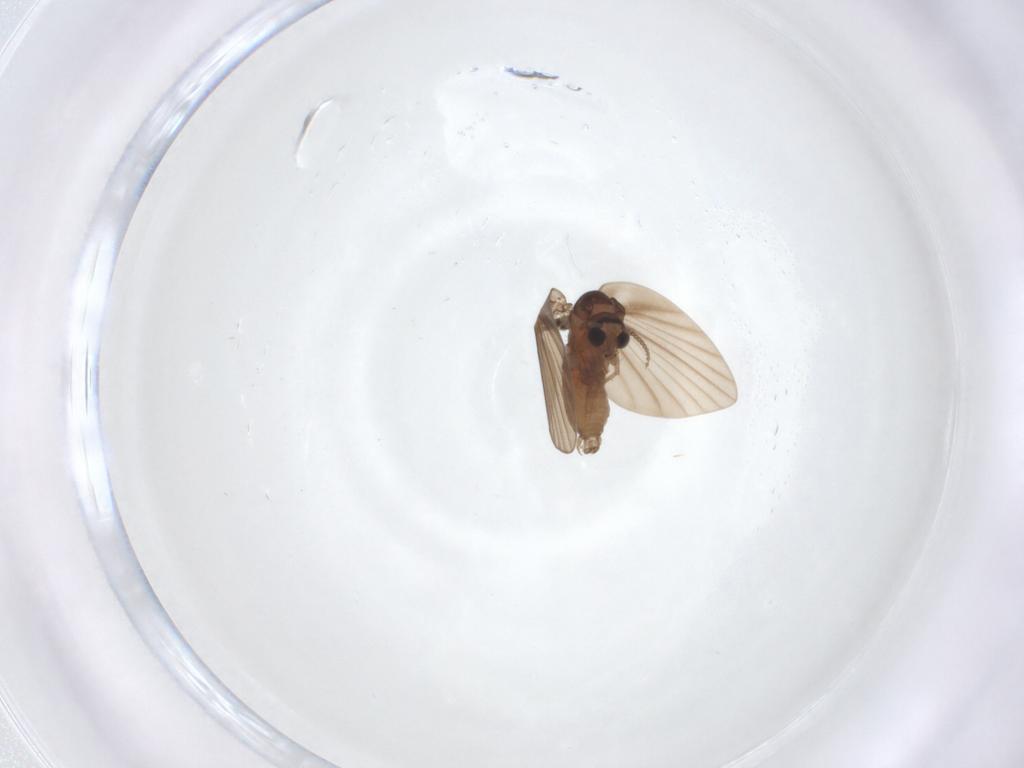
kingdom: Animalia
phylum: Arthropoda
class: Insecta
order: Diptera
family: Psychodidae
